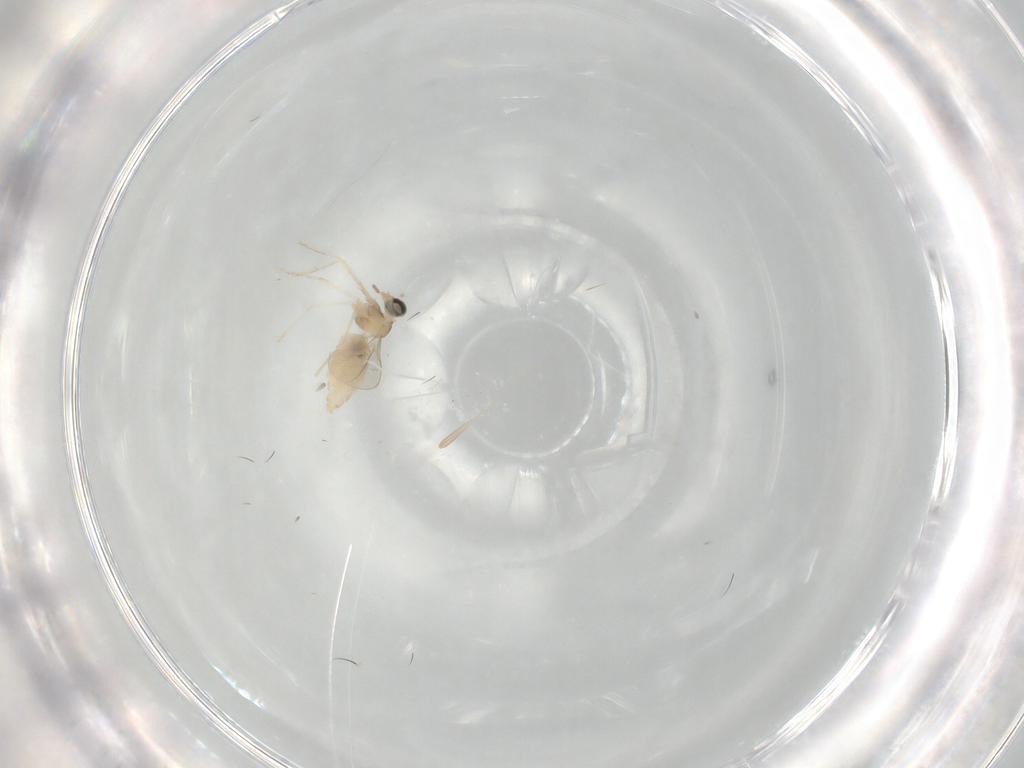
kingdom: Animalia
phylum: Arthropoda
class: Insecta
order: Diptera
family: Cecidomyiidae
